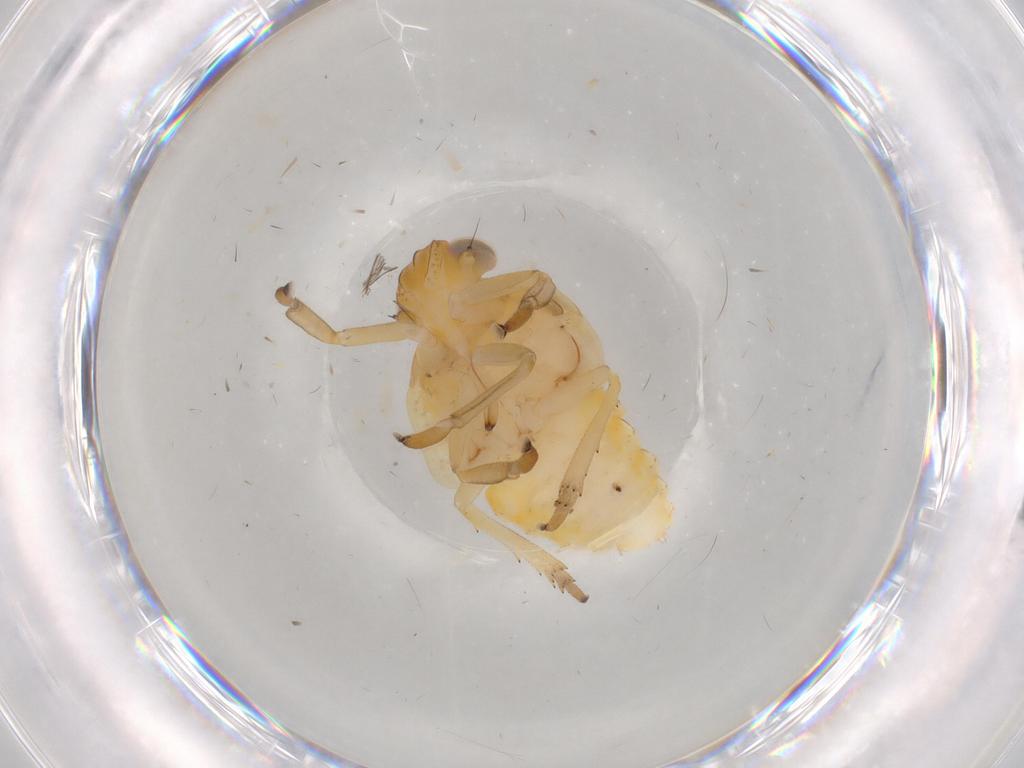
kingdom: Animalia
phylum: Arthropoda
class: Insecta
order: Hemiptera
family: Issidae
